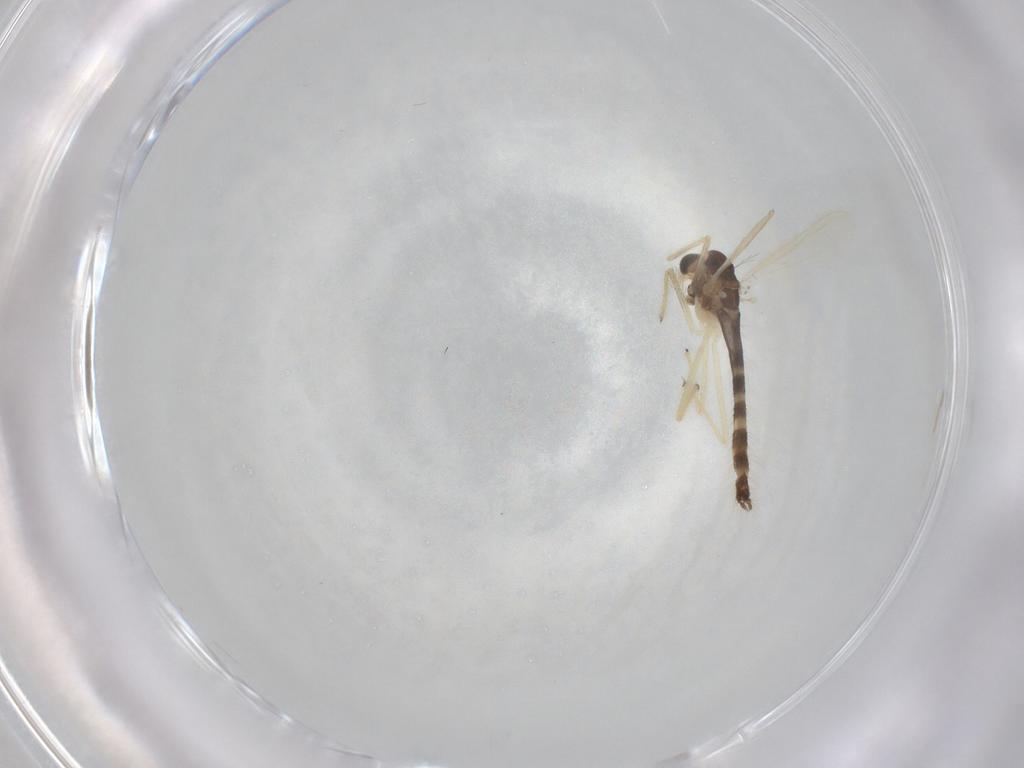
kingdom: Animalia
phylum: Arthropoda
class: Insecta
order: Diptera
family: Chironomidae
